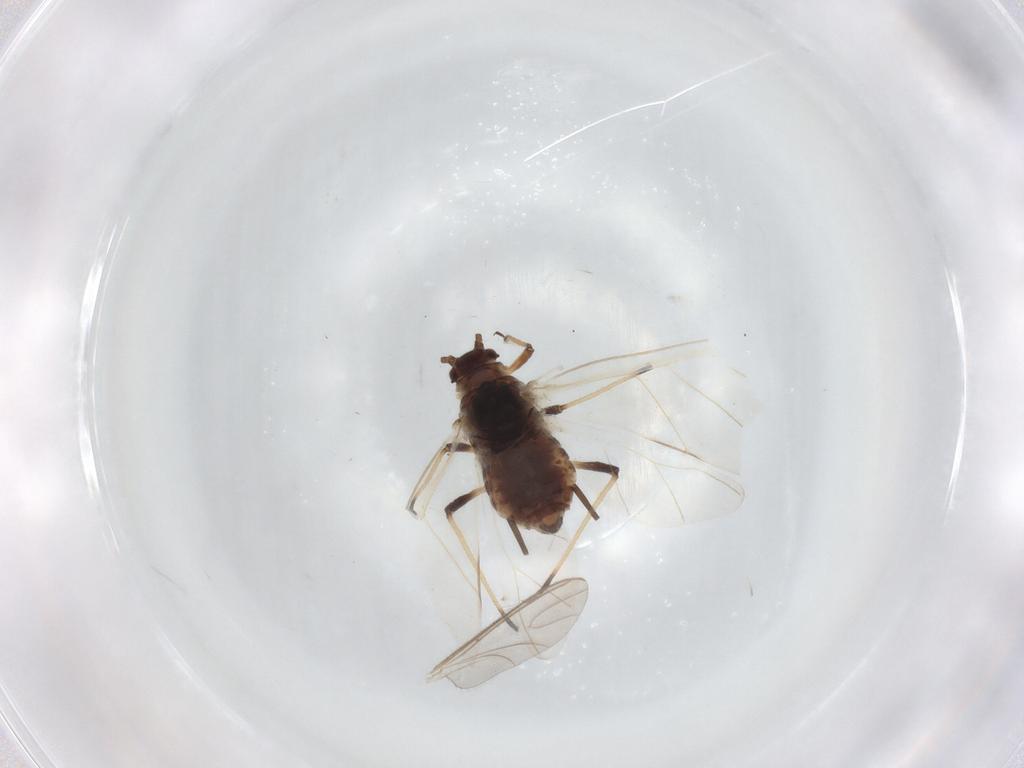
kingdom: Animalia
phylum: Arthropoda
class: Insecta
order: Hemiptera
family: Aphididae
